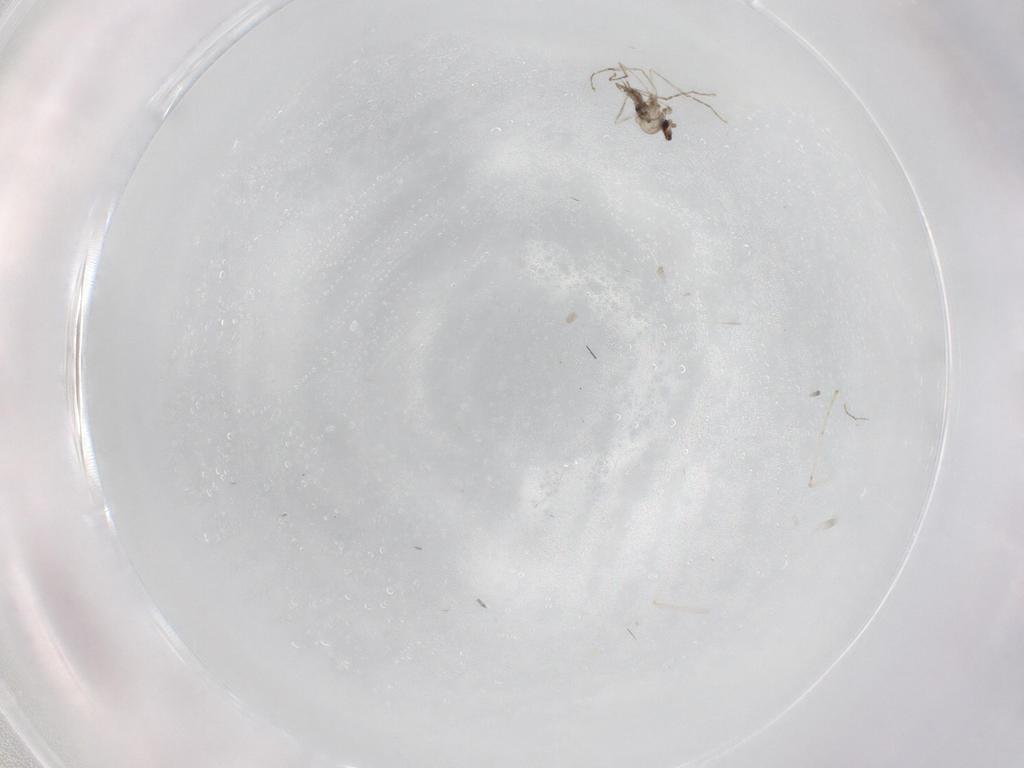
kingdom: Animalia
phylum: Arthropoda
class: Insecta
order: Diptera
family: Cecidomyiidae
